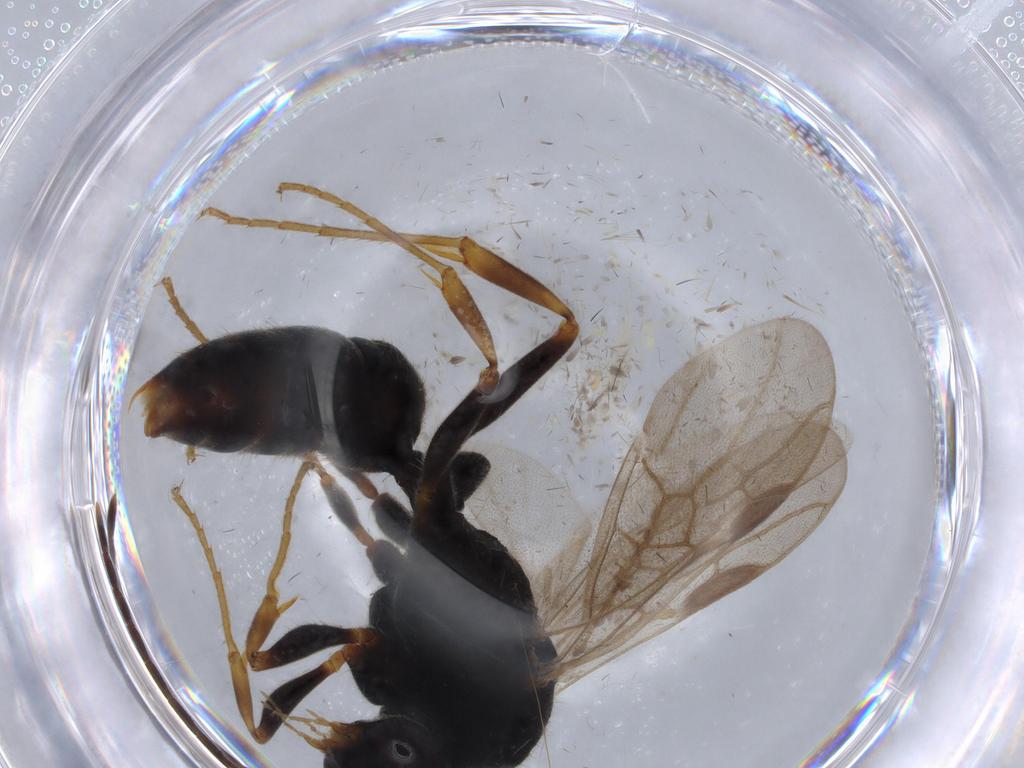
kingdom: Animalia
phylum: Arthropoda
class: Insecta
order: Hymenoptera
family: Formicidae
